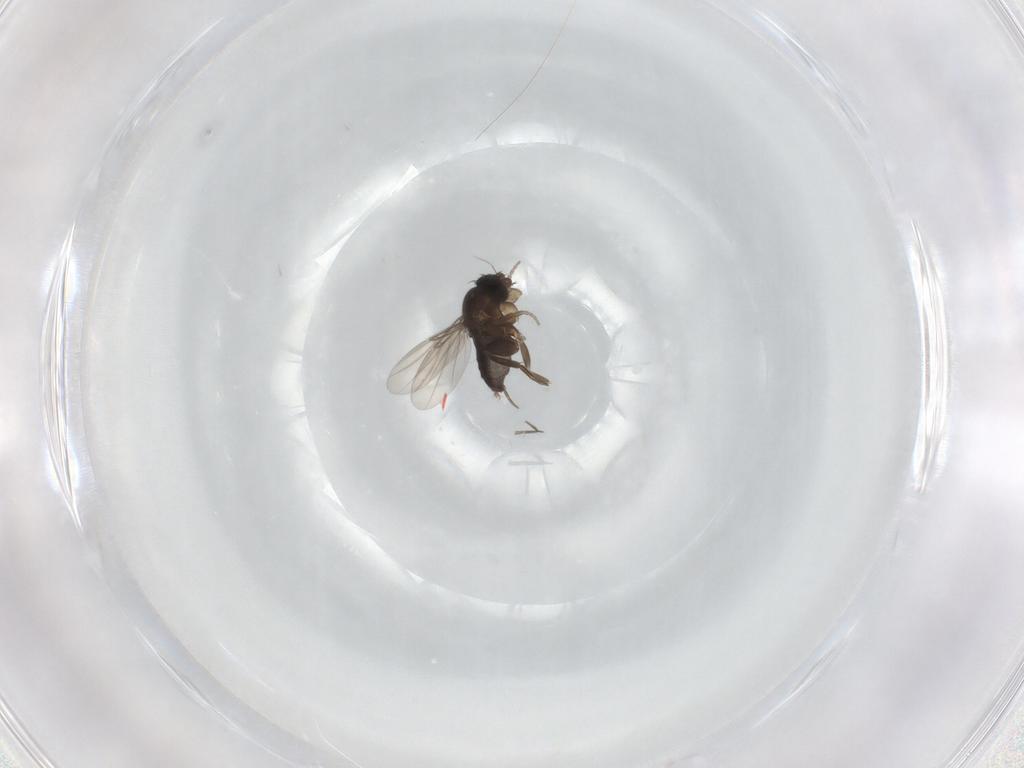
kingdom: Animalia
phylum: Arthropoda
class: Insecta
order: Diptera
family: Phoridae
